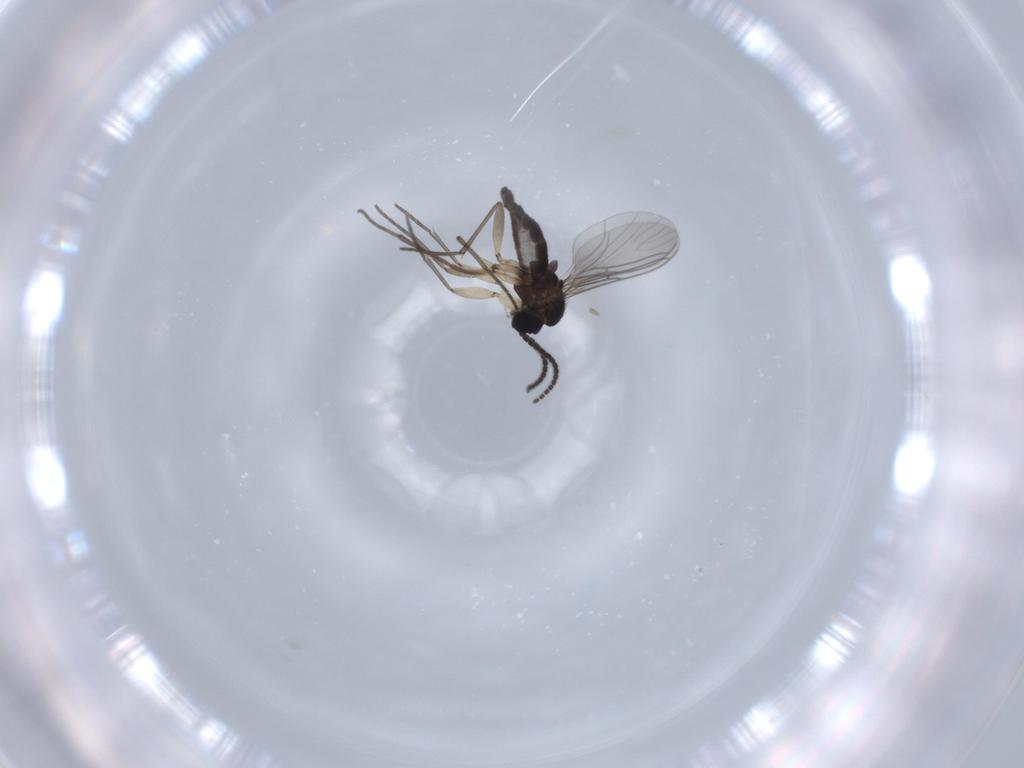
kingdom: Animalia
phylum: Arthropoda
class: Insecta
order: Diptera
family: Sciaridae
